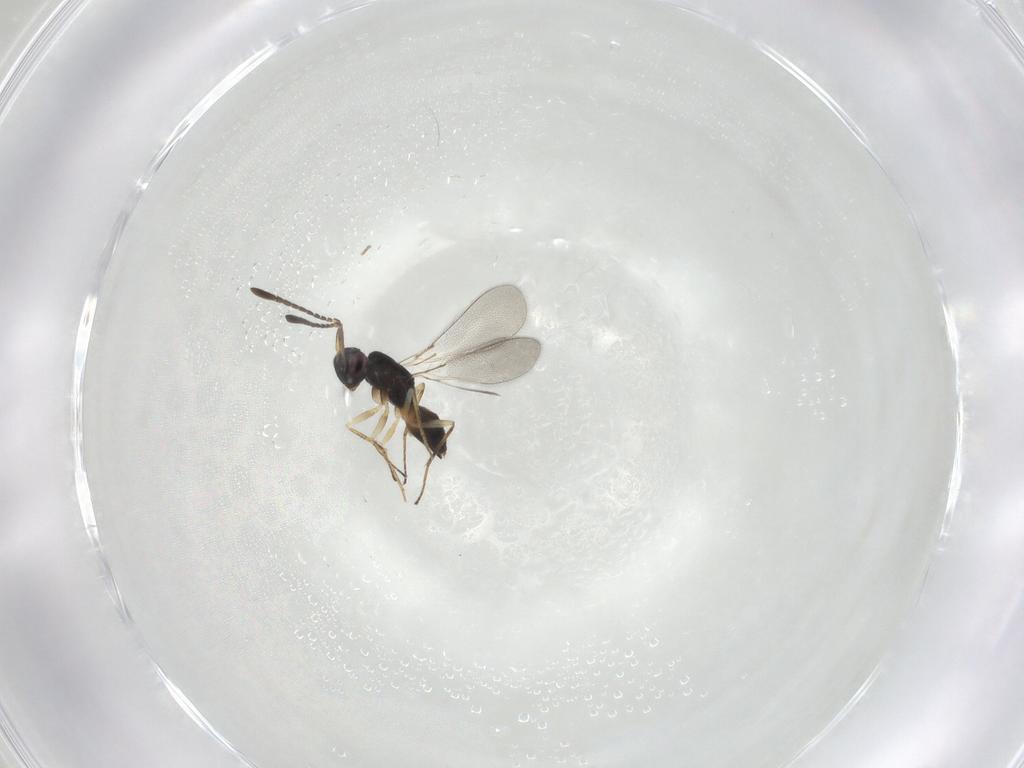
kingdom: Animalia
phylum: Arthropoda
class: Insecta
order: Hymenoptera
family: Mymaridae
